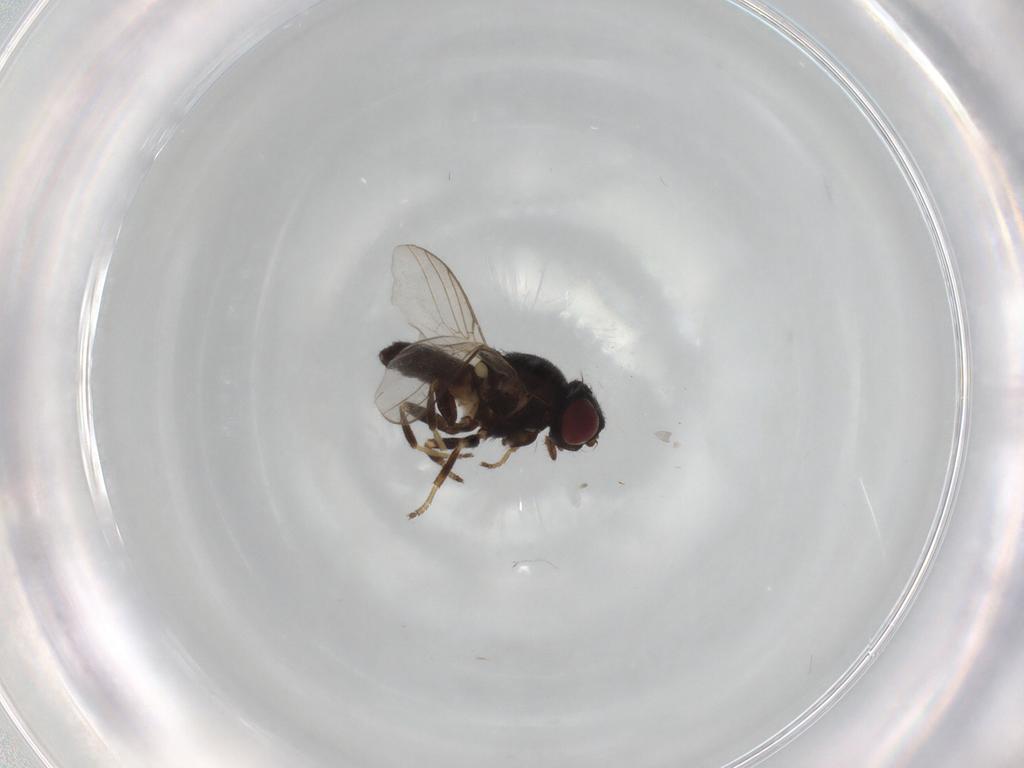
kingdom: Animalia
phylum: Arthropoda
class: Insecta
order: Diptera
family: Chloropidae
